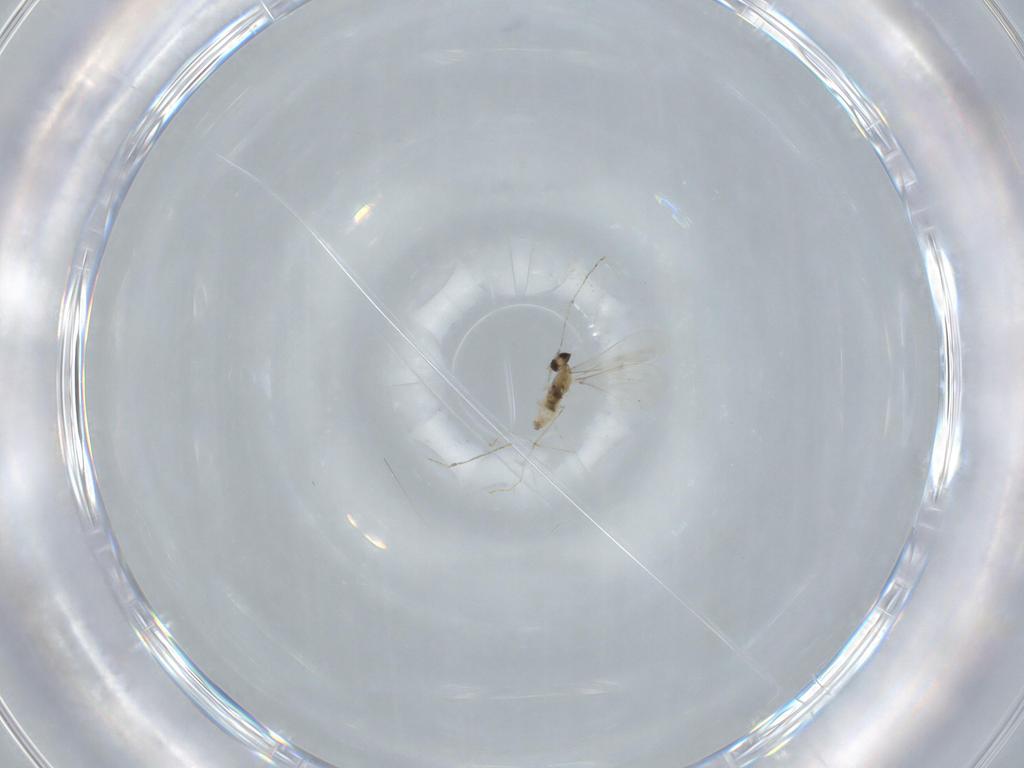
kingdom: Animalia
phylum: Arthropoda
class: Insecta
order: Diptera
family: Cecidomyiidae
